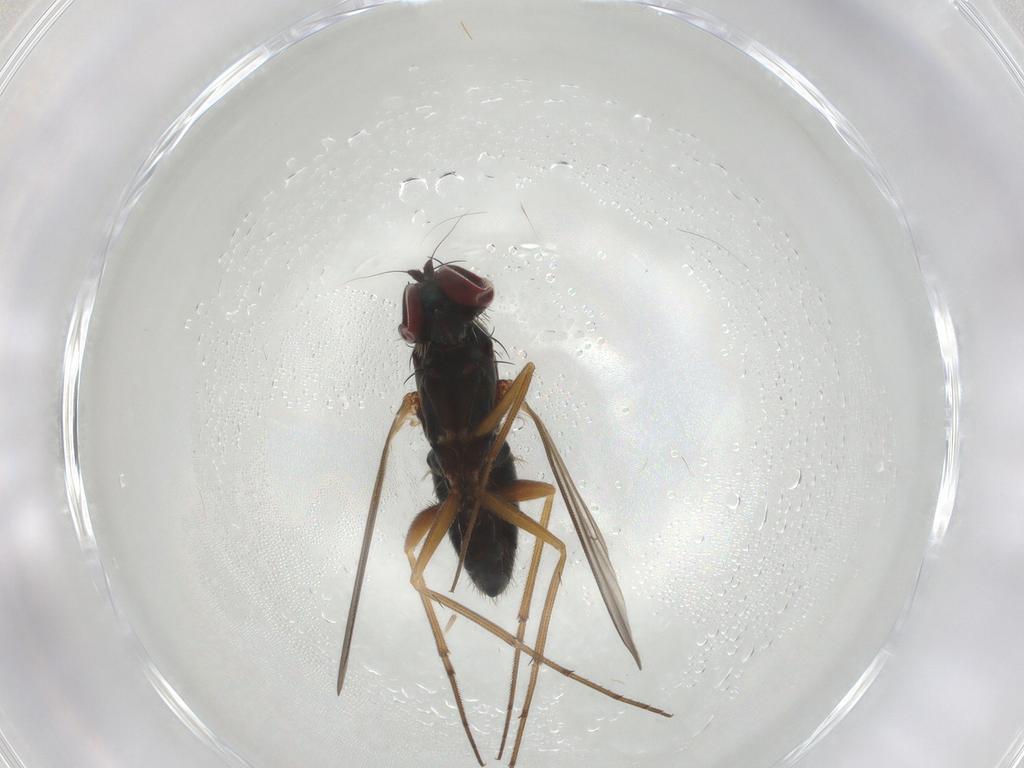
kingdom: Animalia
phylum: Arthropoda
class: Insecta
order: Diptera
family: Dolichopodidae
